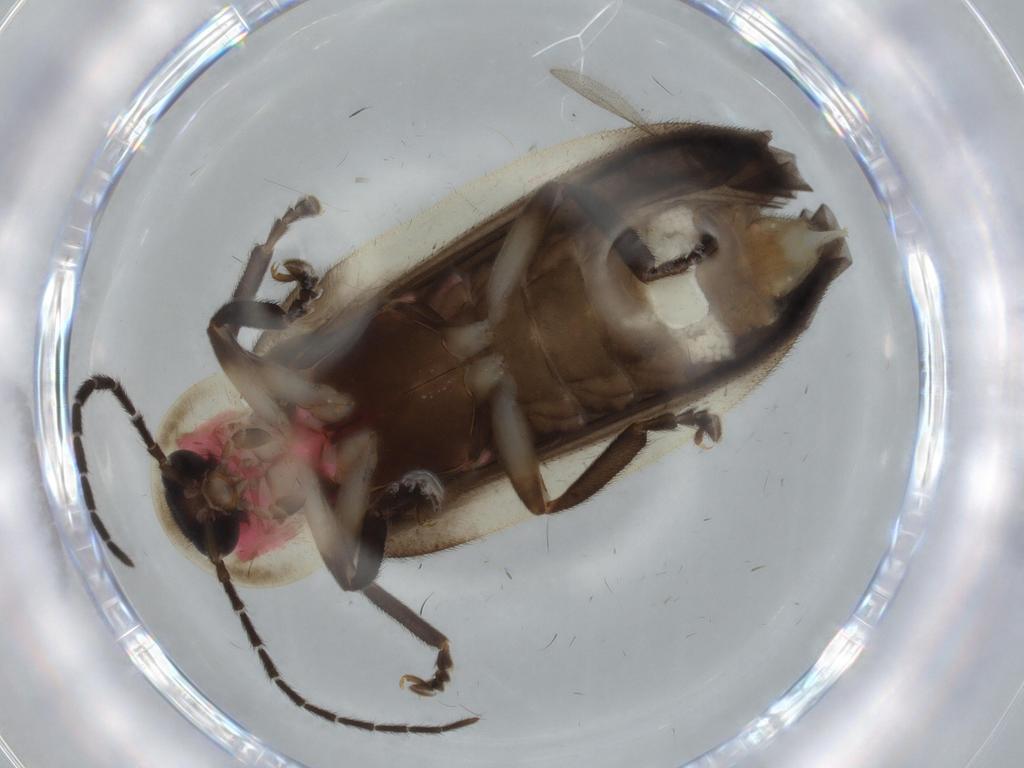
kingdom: Animalia
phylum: Arthropoda
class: Insecta
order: Coleoptera
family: Lampyridae
